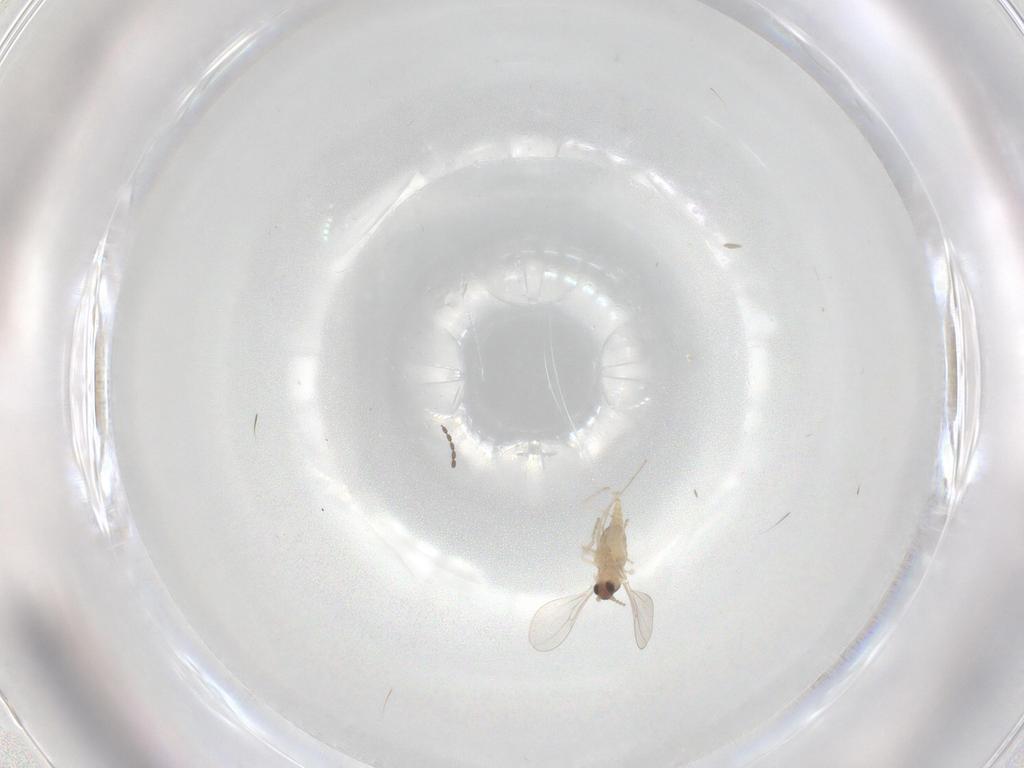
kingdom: Animalia
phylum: Arthropoda
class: Insecta
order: Diptera
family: Cecidomyiidae
